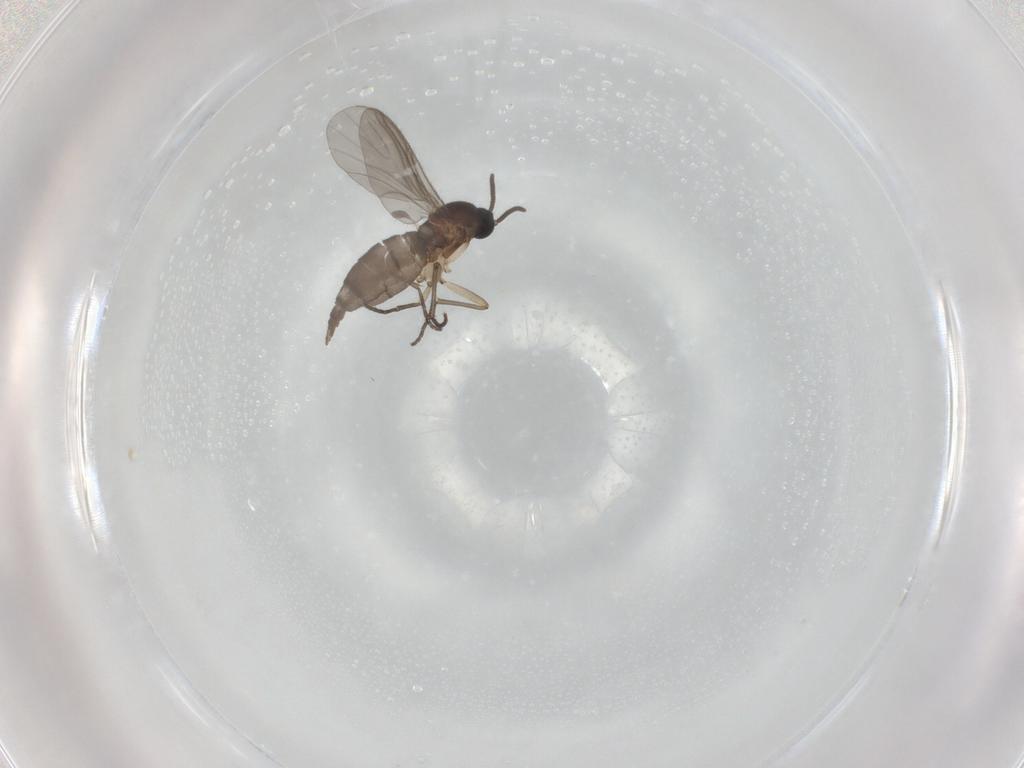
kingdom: Animalia
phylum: Arthropoda
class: Insecta
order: Diptera
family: Sciaridae
